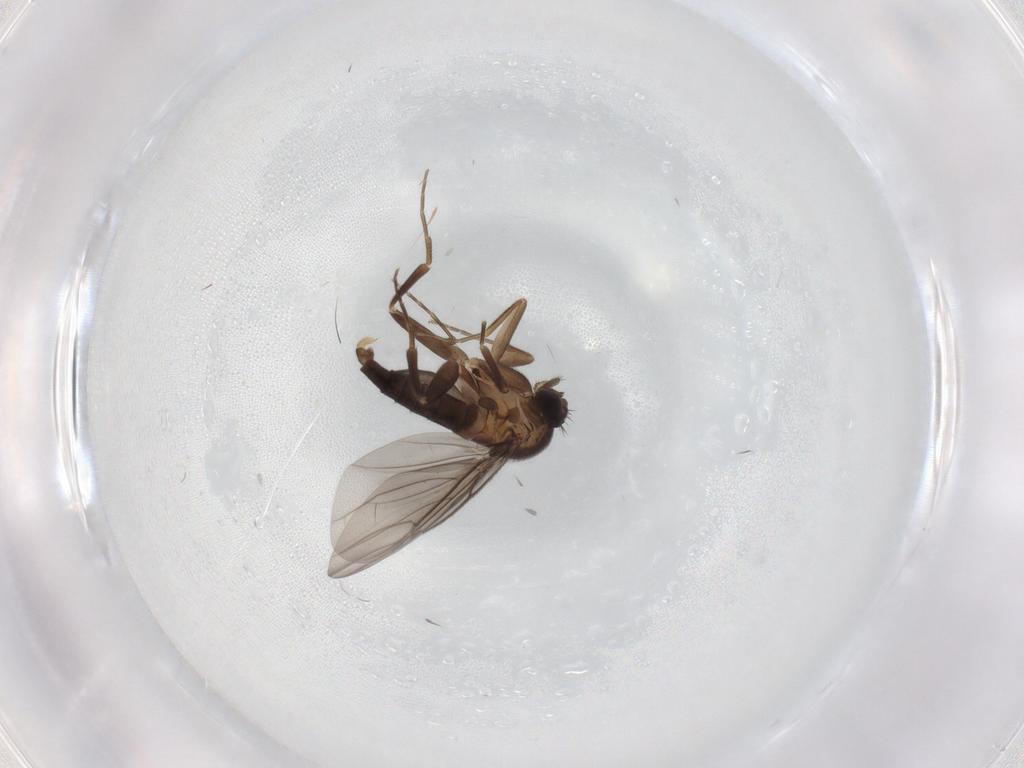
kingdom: Animalia
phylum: Arthropoda
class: Insecta
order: Diptera
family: Phoridae
